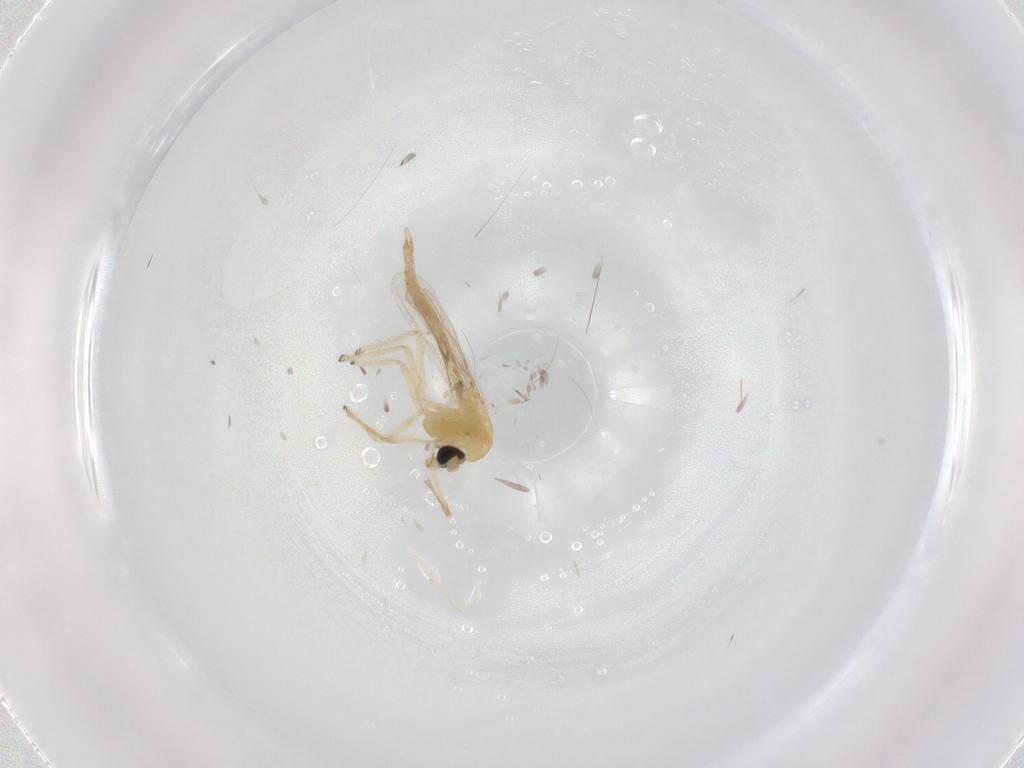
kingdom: Animalia
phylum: Arthropoda
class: Insecta
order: Diptera
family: Chironomidae
